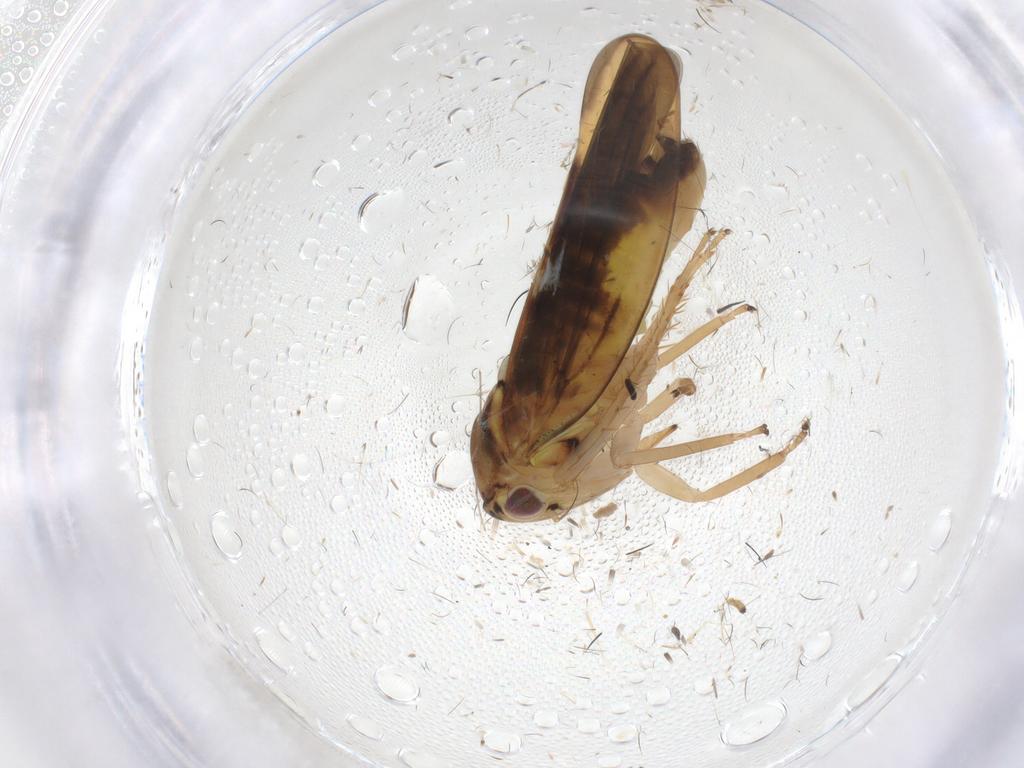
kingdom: Animalia
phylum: Arthropoda
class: Insecta
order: Hemiptera
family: Cicadellidae
